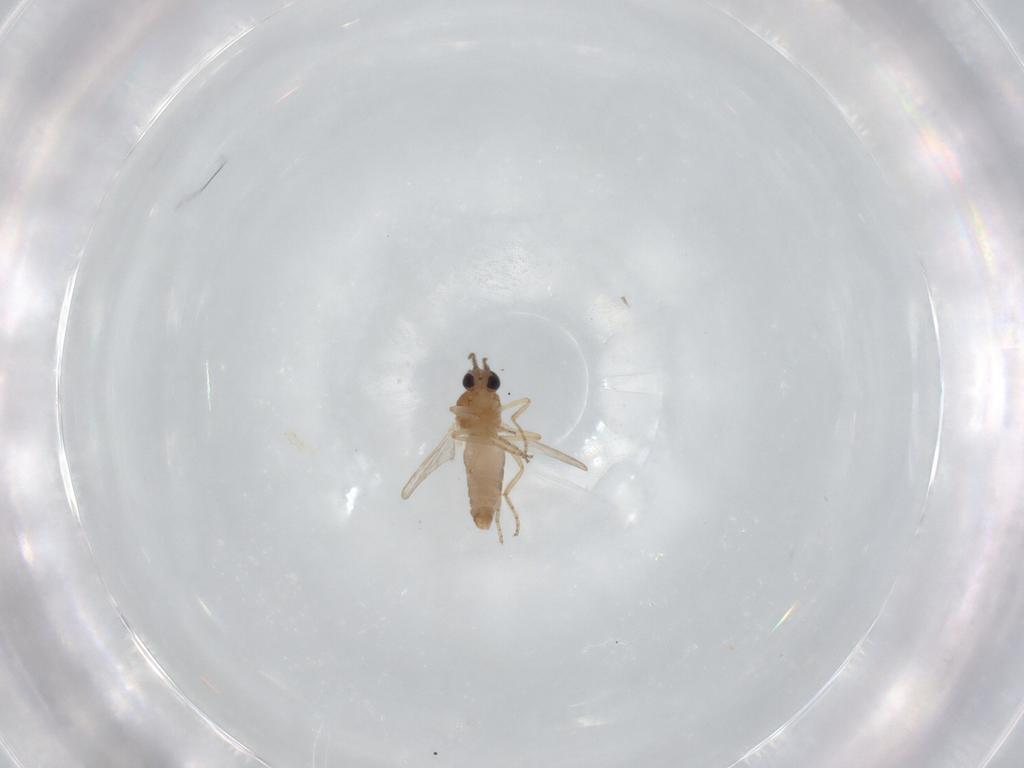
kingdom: Animalia
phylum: Arthropoda
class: Insecta
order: Diptera
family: Ceratopogonidae
